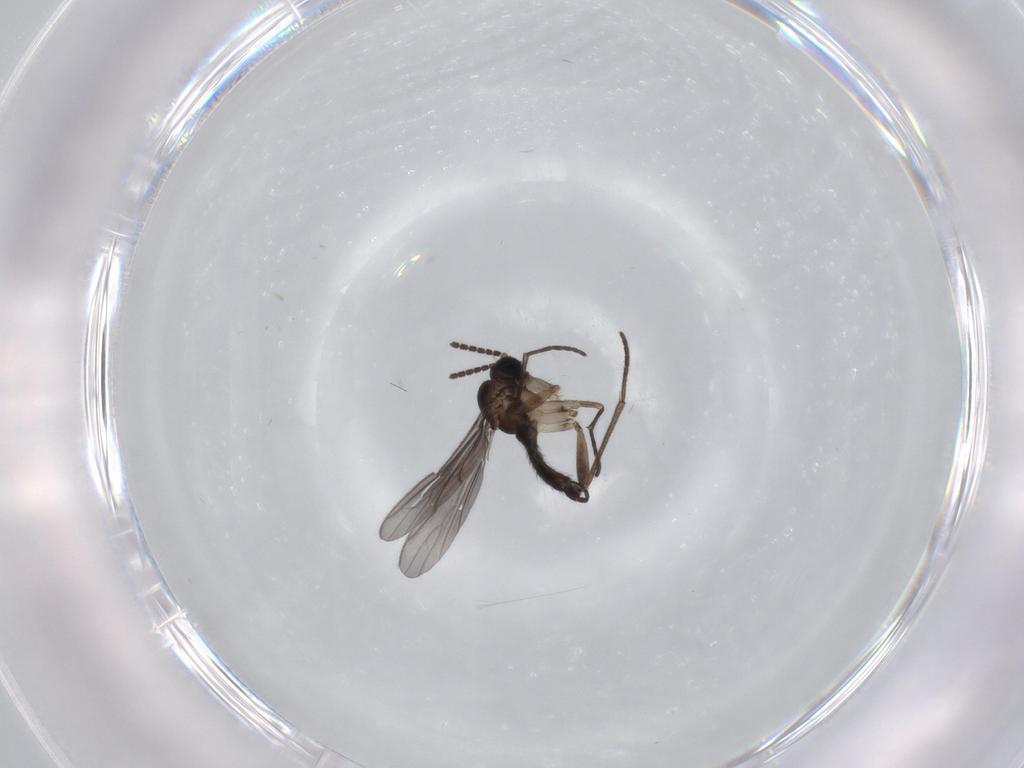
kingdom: Animalia
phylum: Arthropoda
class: Insecta
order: Diptera
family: Sciaridae
